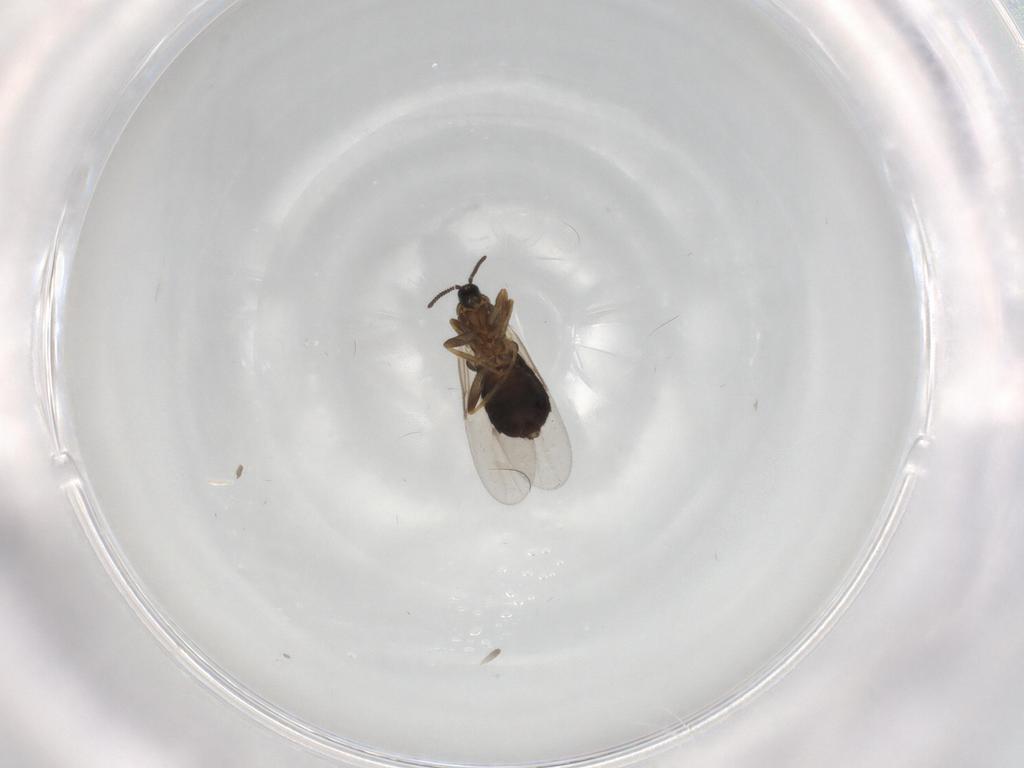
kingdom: Animalia
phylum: Arthropoda
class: Insecta
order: Diptera
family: Scatopsidae
